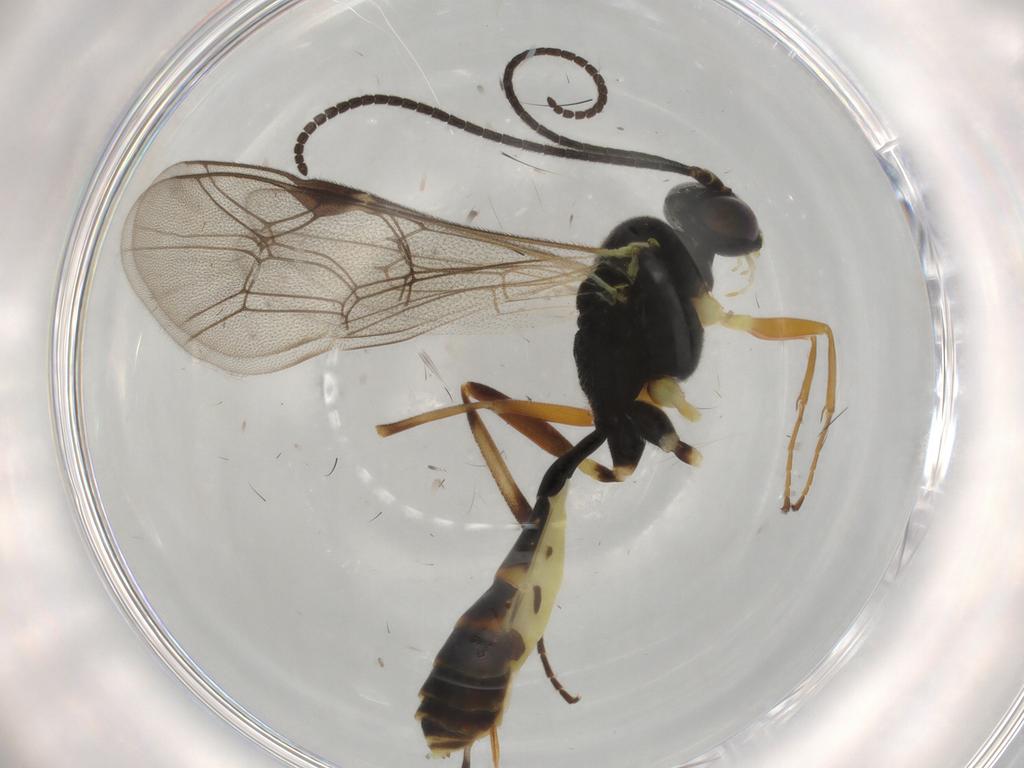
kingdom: Animalia
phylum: Arthropoda
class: Insecta
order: Hymenoptera
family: Ichneumonidae
